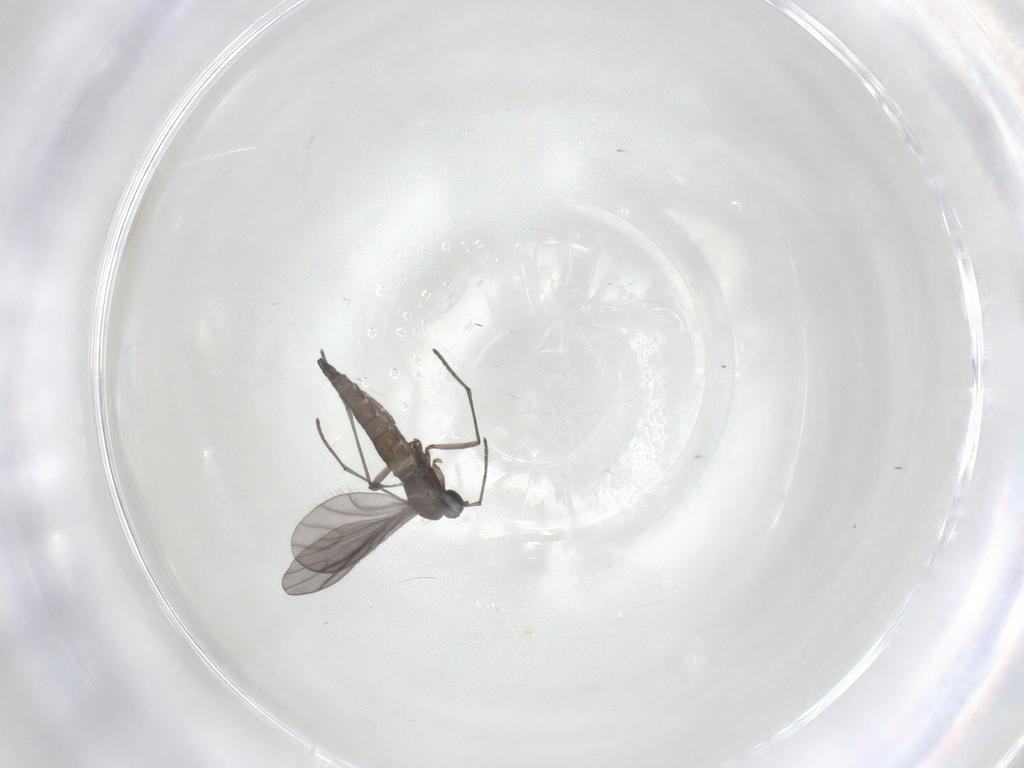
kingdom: Animalia
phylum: Arthropoda
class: Insecta
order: Diptera
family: Sciaridae
